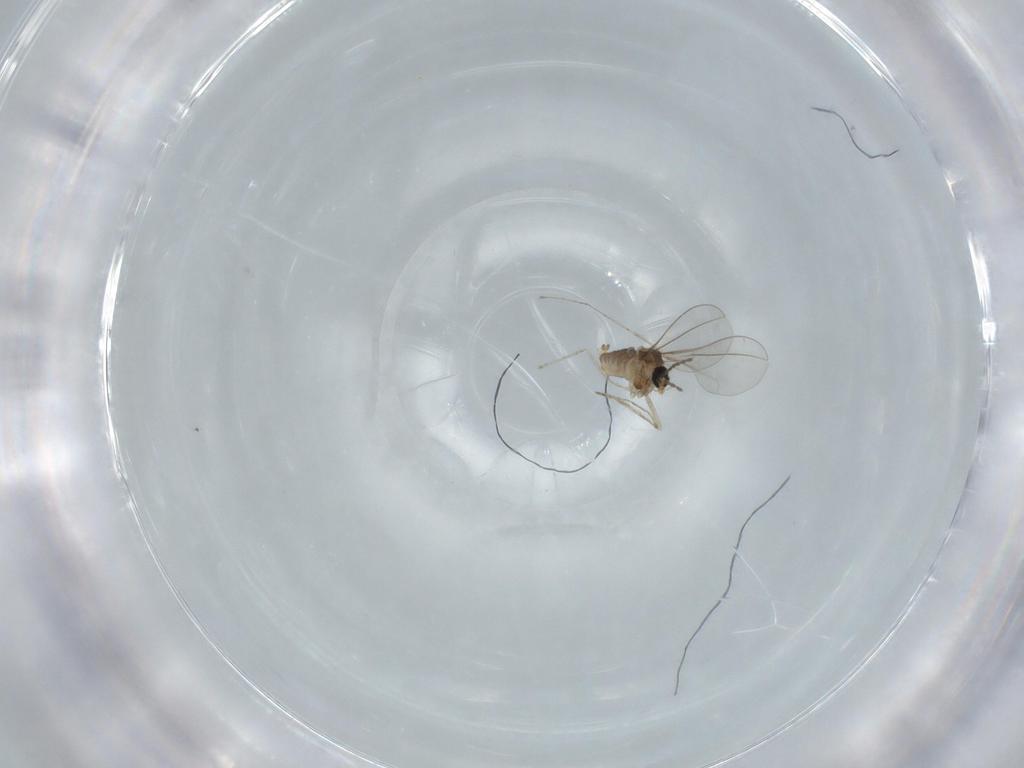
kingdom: Animalia
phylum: Arthropoda
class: Insecta
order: Diptera
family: Cecidomyiidae
